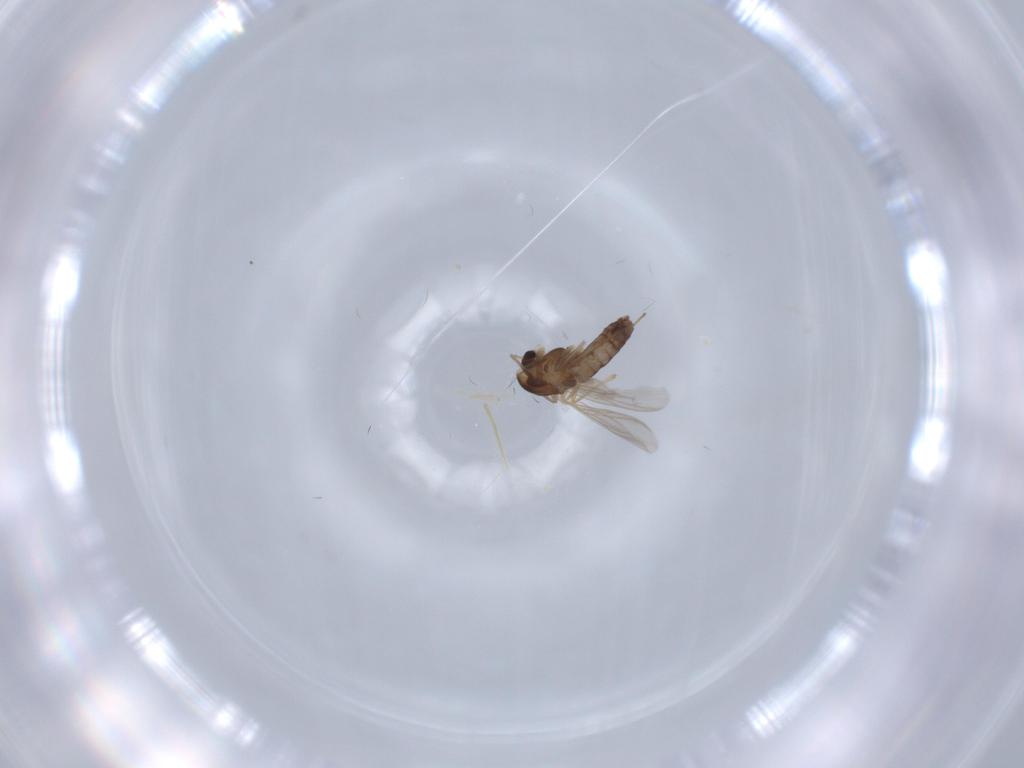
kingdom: Animalia
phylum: Arthropoda
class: Insecta
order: Diptera
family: Chironomidae
